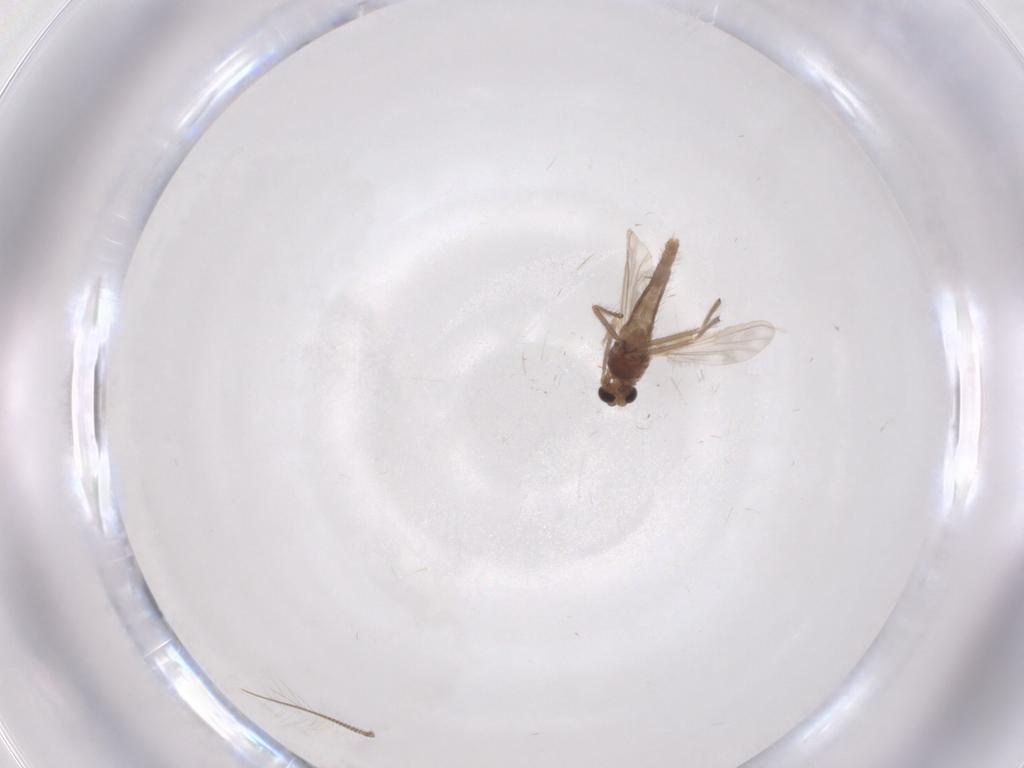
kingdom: Animalia
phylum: Arthropoda
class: Insecta
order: Diptera
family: Chironomidae
